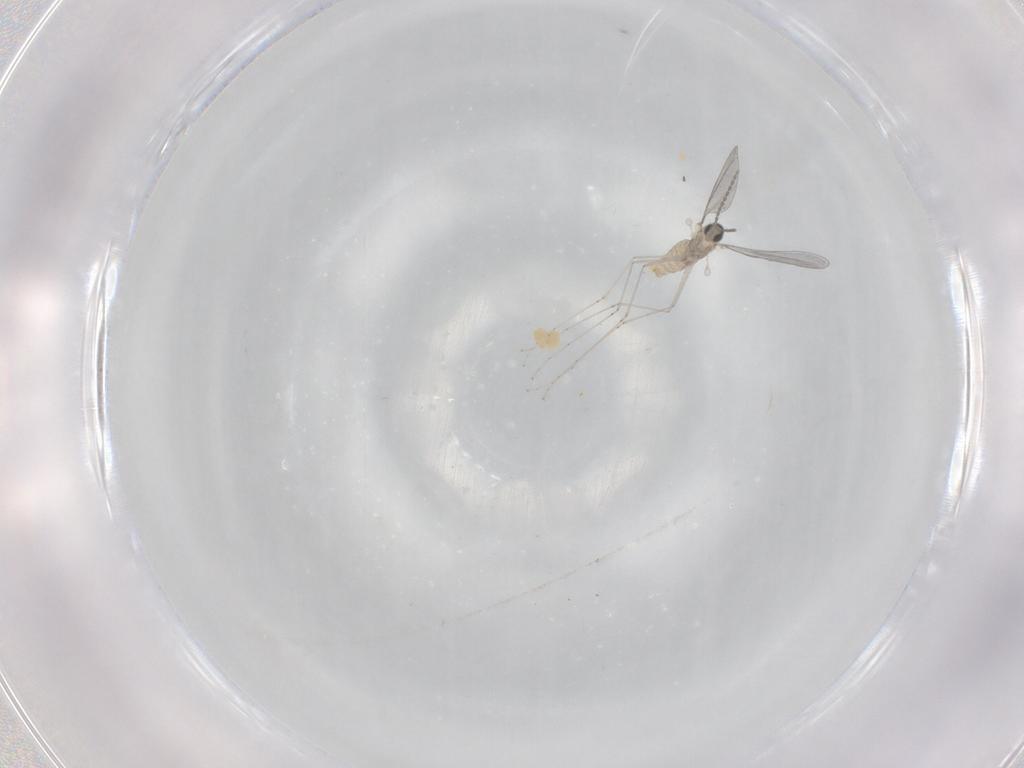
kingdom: Animalia
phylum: Arthropoda
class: Insecta
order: Diptera
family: Cecidomyiidae
